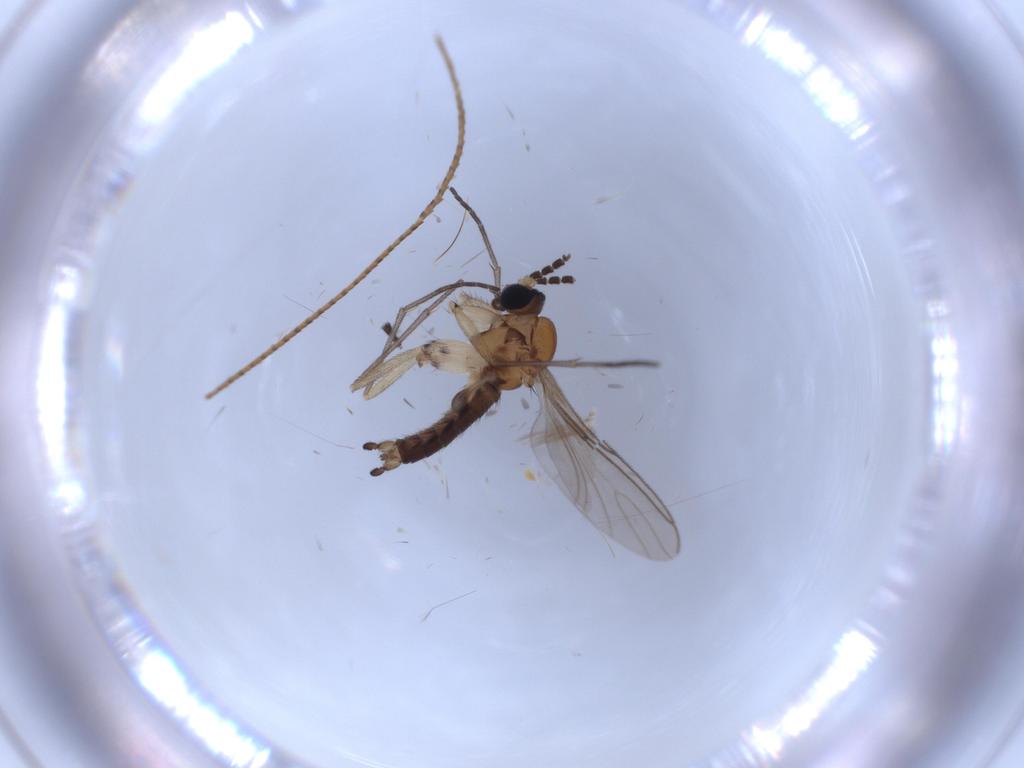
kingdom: Animalia
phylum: Arthropoda
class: Insecta
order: Diptera
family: Sciaridae
